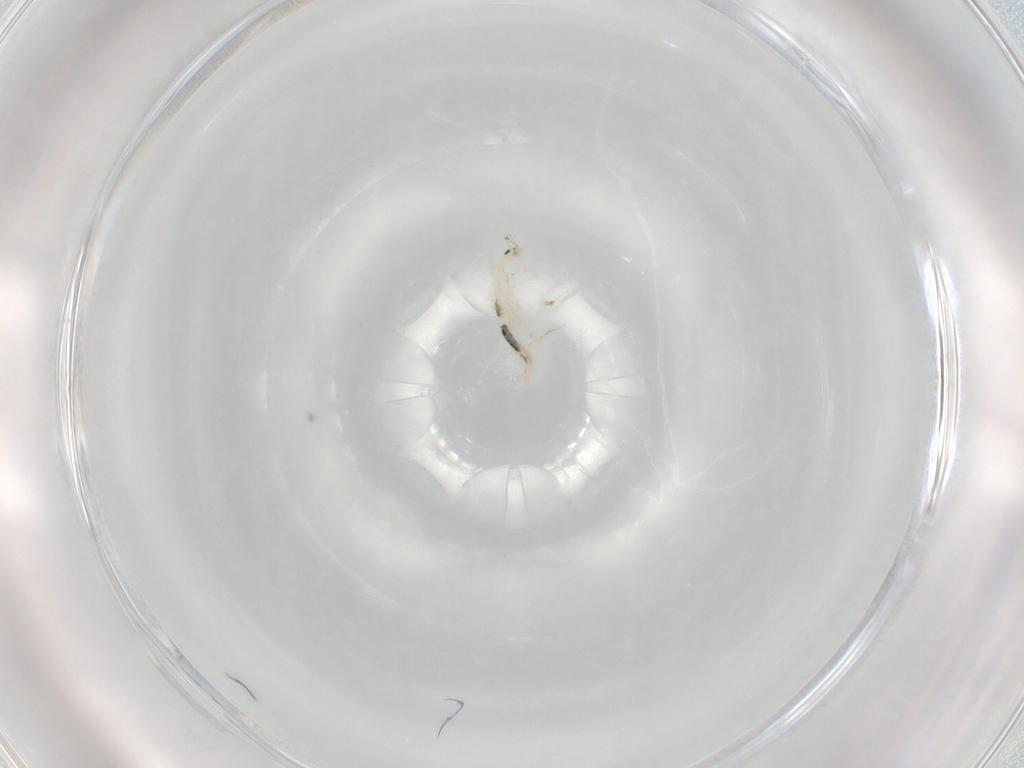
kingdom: Animalia
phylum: Arthropoda
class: Collembola
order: Entomobryomorpha
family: Entomobryidae
